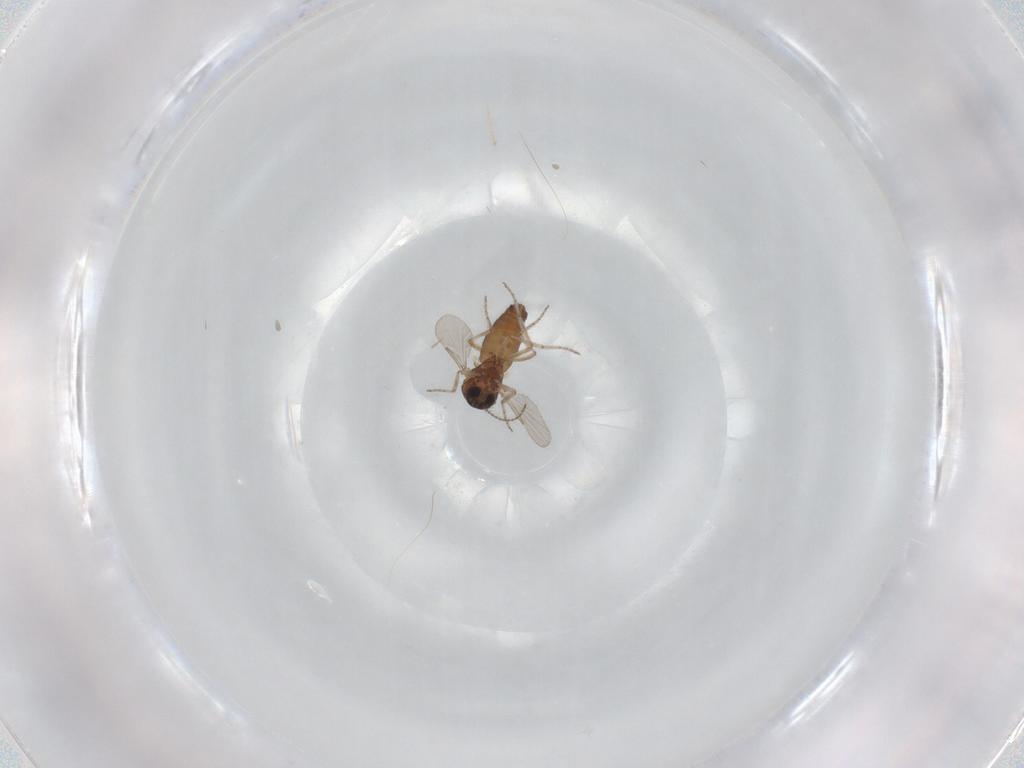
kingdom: Animalia
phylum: Arthropoda
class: Insecta
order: Diptera
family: Ceratopogonidae
